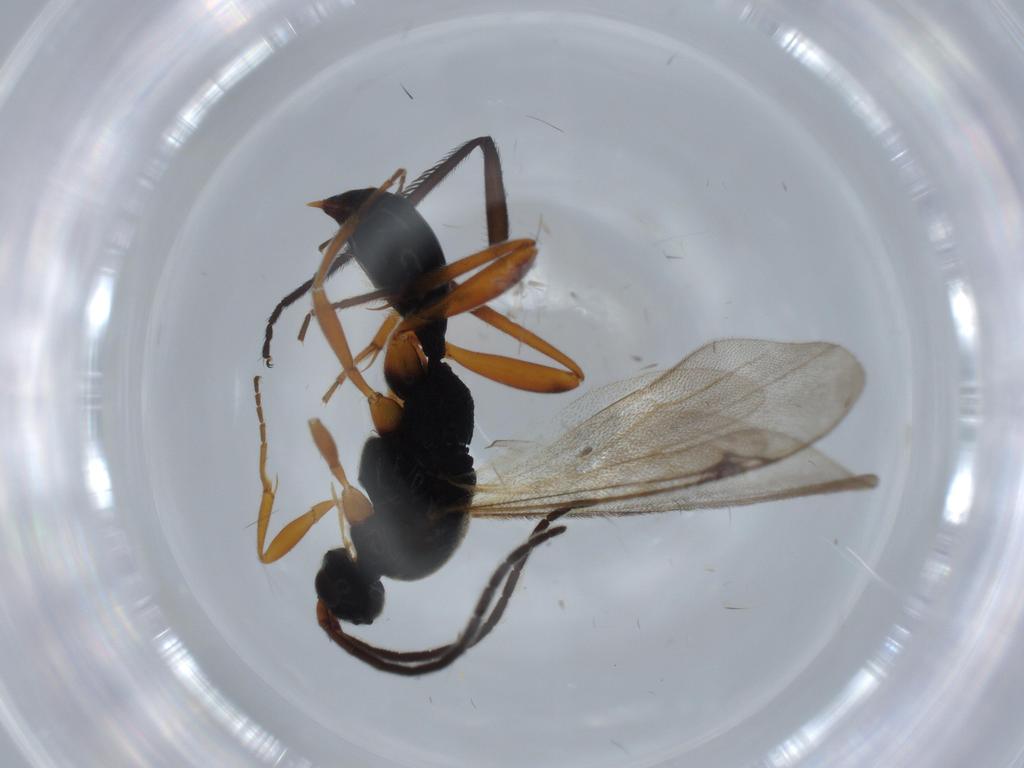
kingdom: Animalia
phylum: Arthropoda
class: Insecta
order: Hymenoptera
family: Proctotrupidae
